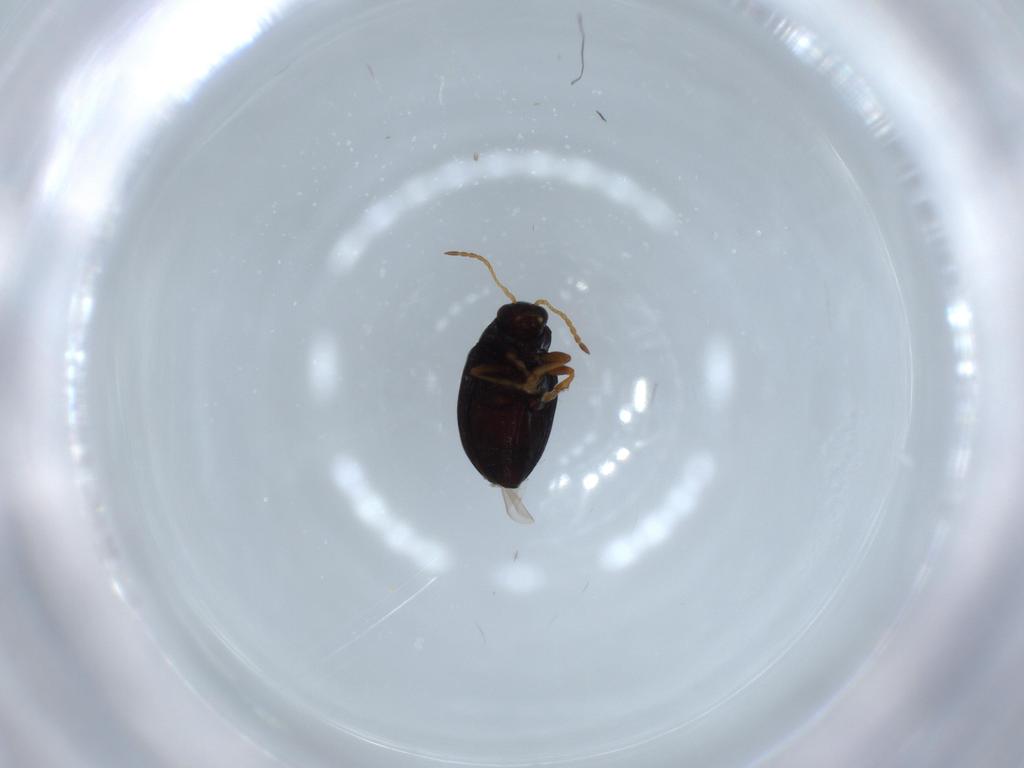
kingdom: Animalia
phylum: Arthropoda
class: Insecta
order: Coleoptera
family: Chrysomelidae
